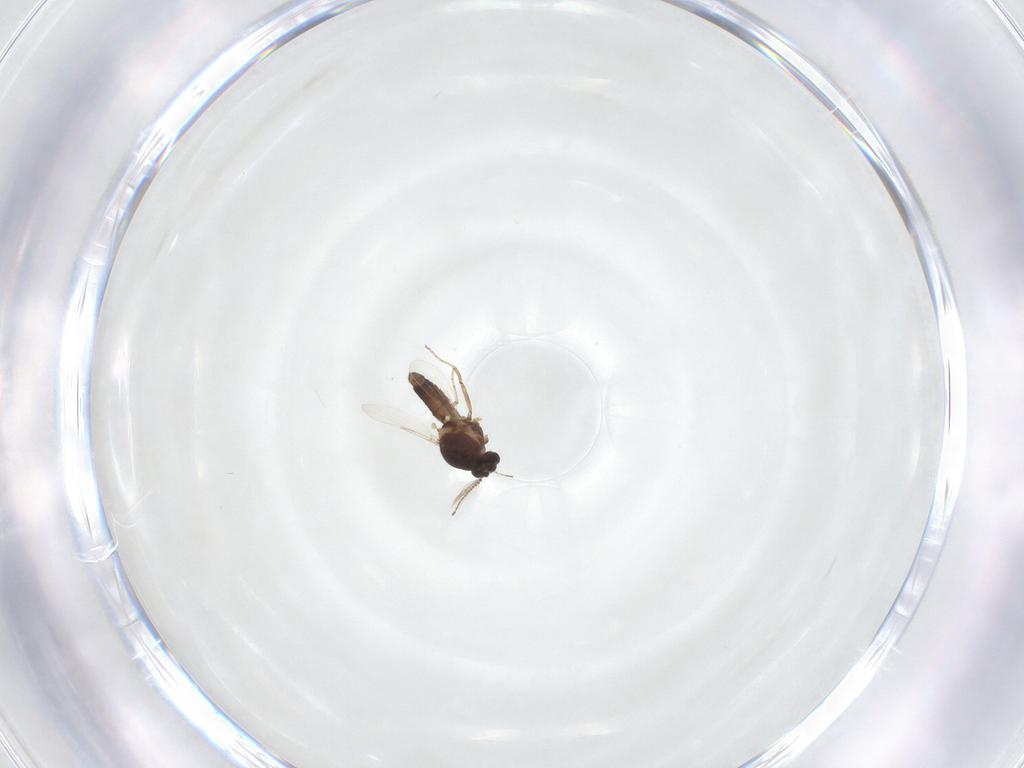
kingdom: Animalia
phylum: Arthropoda
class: Insecta
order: Diptera
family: Ceratopogonidae
